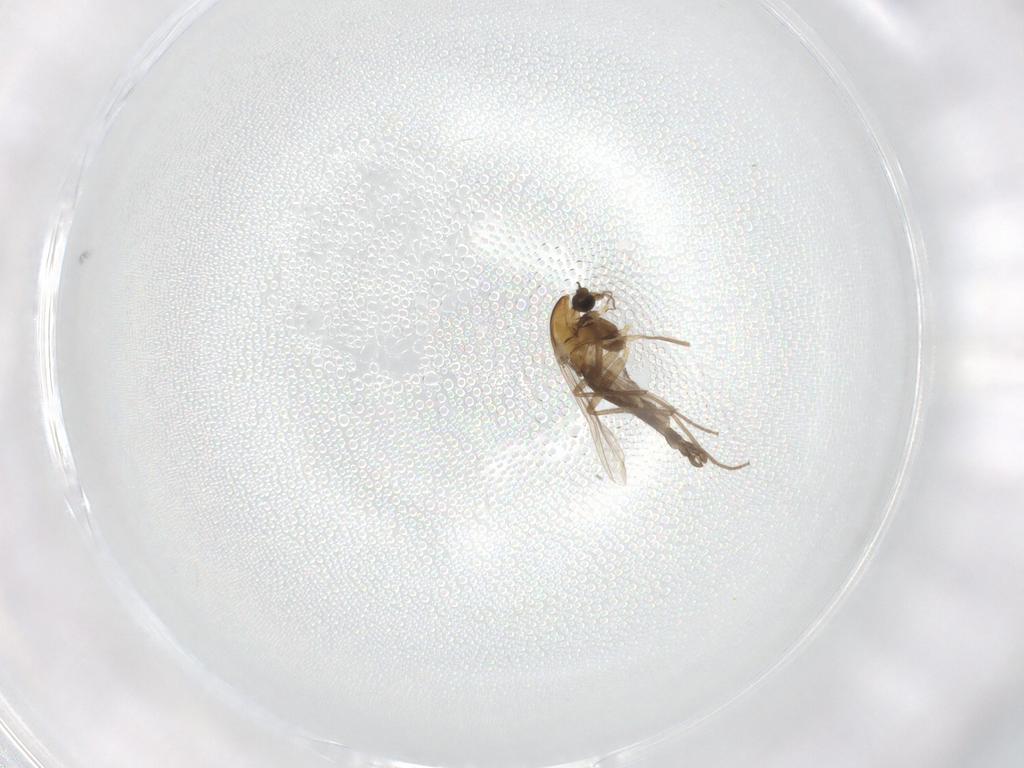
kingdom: Animalia
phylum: Arthropoda
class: Insecta
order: Diptera
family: Chironomidae
